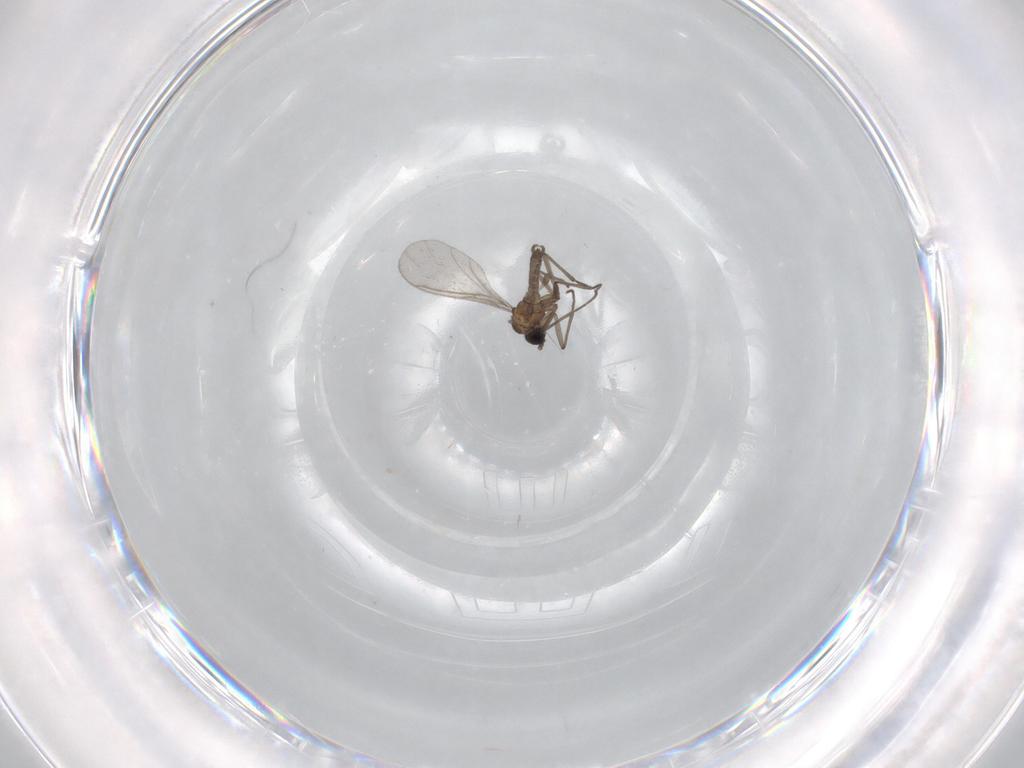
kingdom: Animalia
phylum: Arthropoda
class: Insecta
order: Diptera
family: Sciaridae
